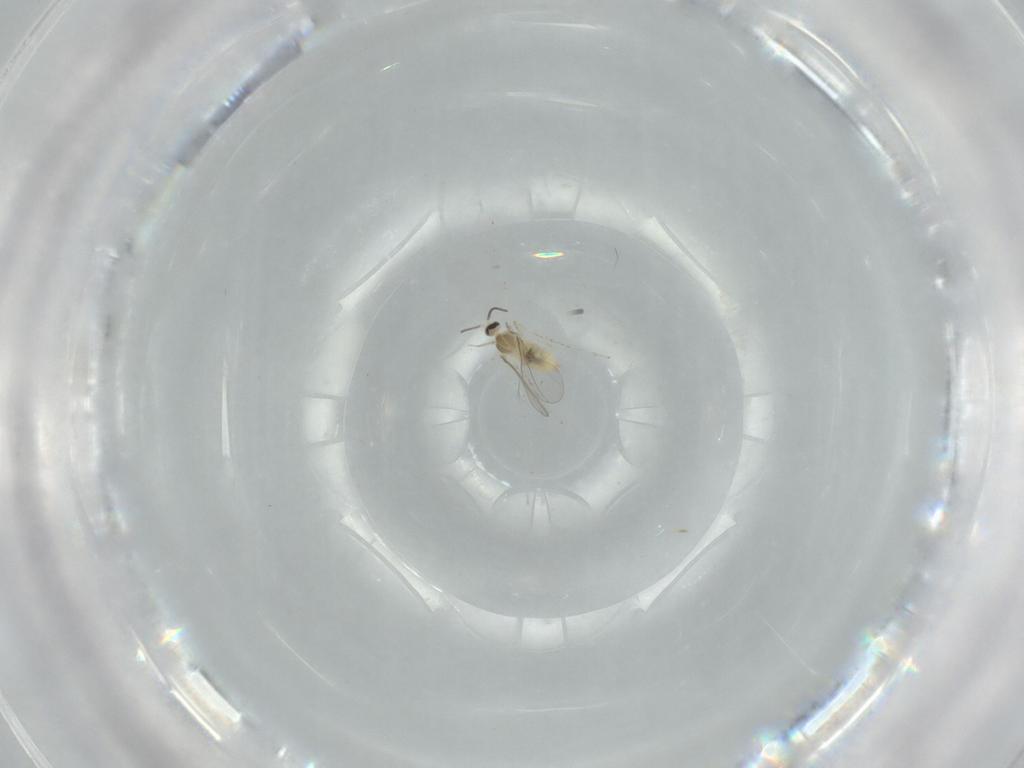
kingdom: Animalia
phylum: Arthropoda
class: Insecta
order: Diptera
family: Cecidomyiidae
